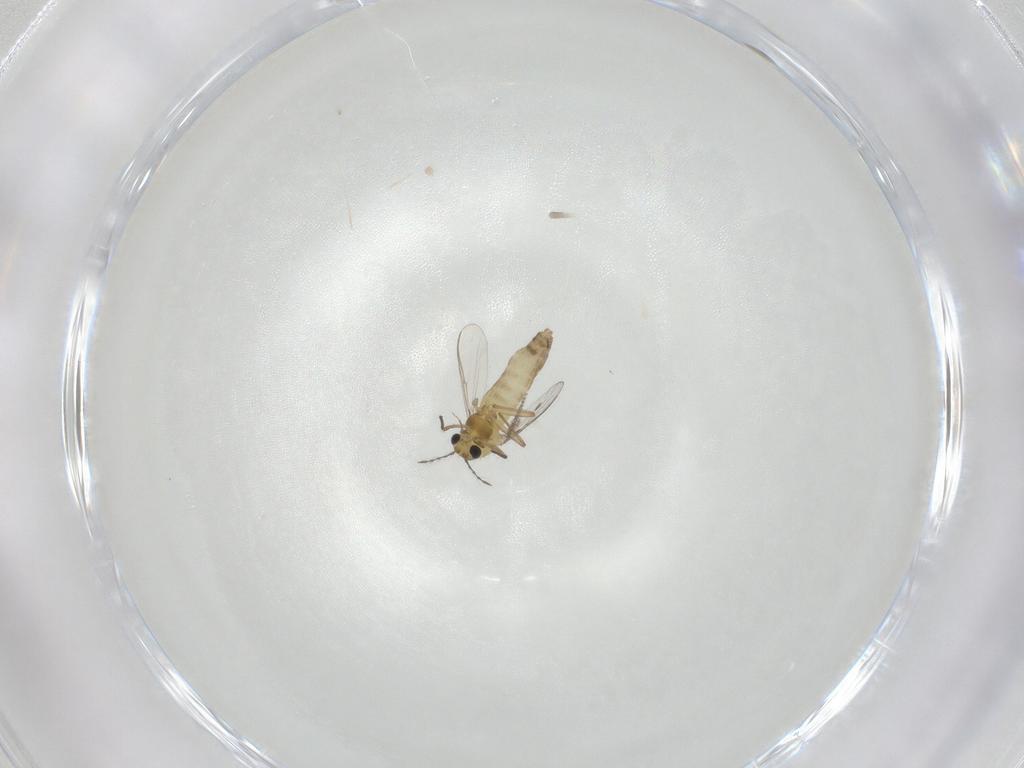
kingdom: Animalia
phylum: Arthropoda
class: Insecta
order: Diptera
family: Chironomidae
